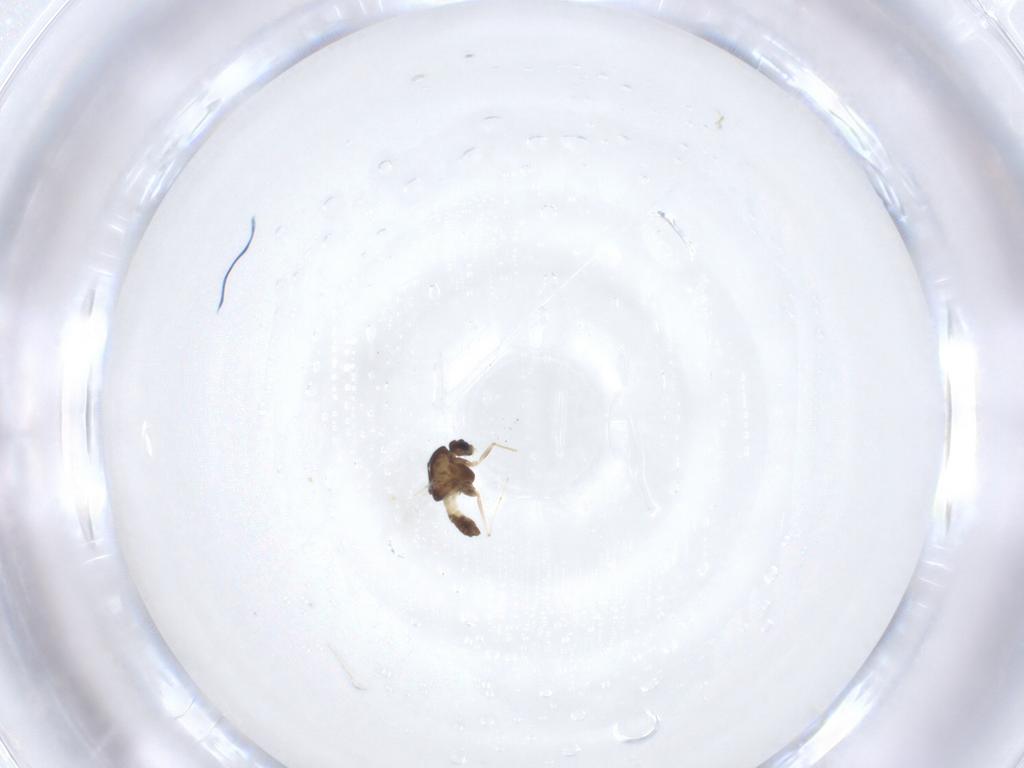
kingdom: Animalia
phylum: Arthropoda
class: Insecta
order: Diptera
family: Chironomidae
